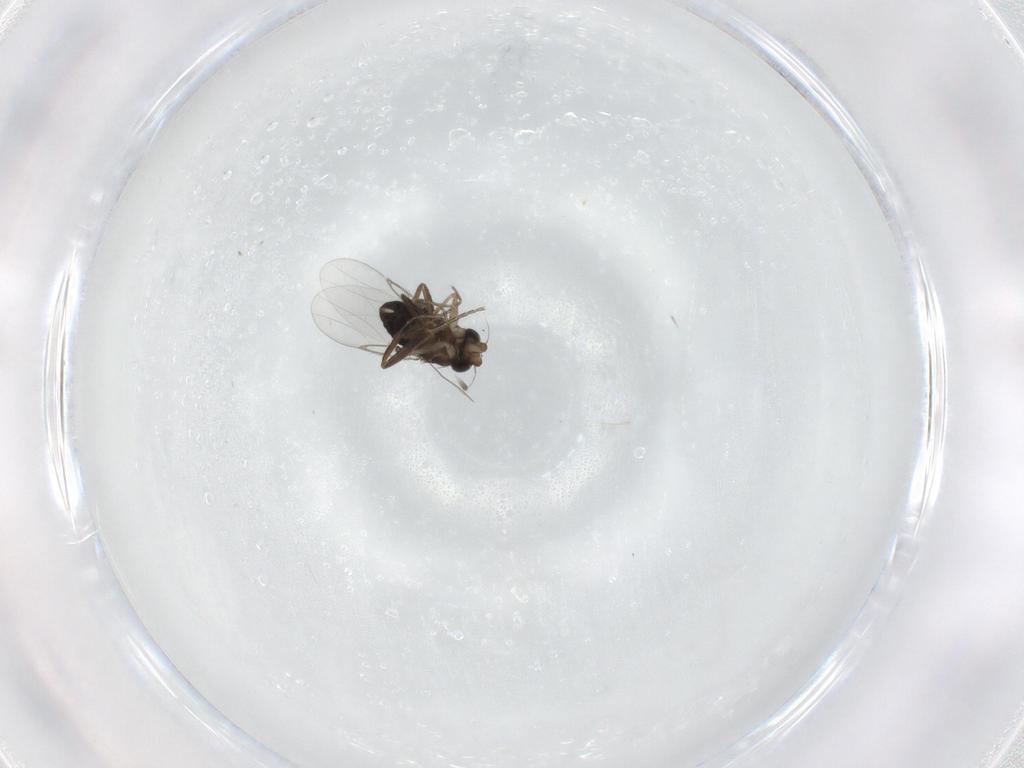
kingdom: Animalia
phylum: Arthropoda
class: Insecta
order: Diptera
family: Phoridae
